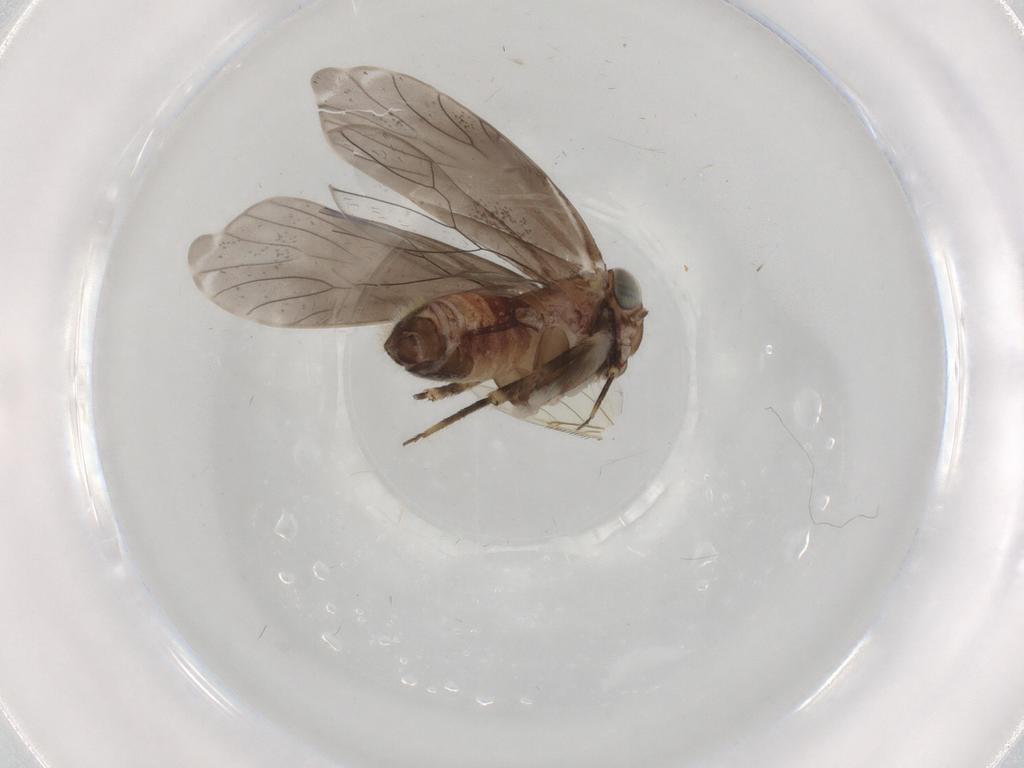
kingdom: Animalia
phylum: Arthropoda
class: Insecta
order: Psocodea
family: Amphientomidae
